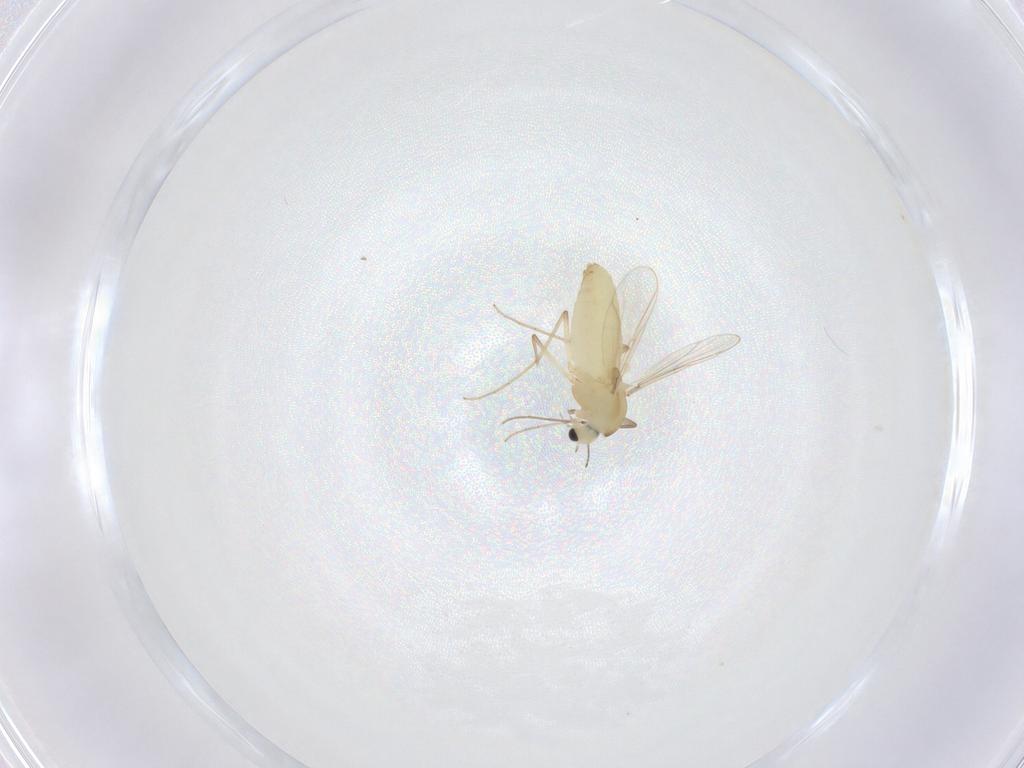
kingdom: Animalia
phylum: Arthropoda
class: Insecta
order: Diptera
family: Chironomidae
